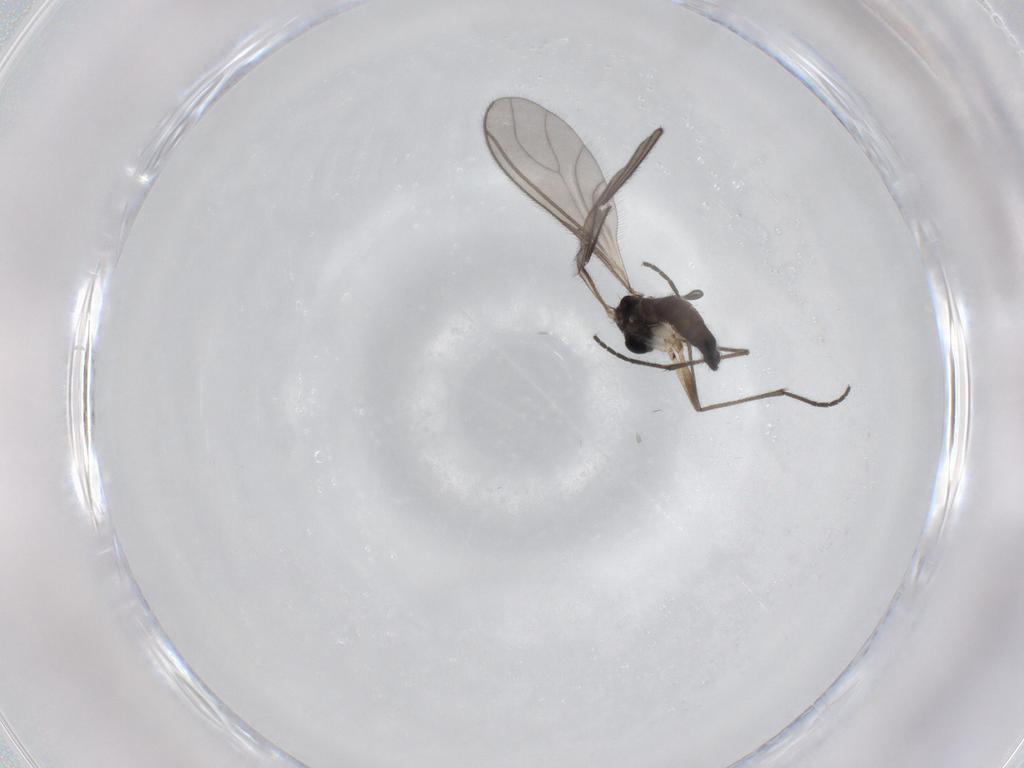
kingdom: Animalia
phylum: Arthropoda
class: Insecta
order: Diptera
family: Sciaridae
